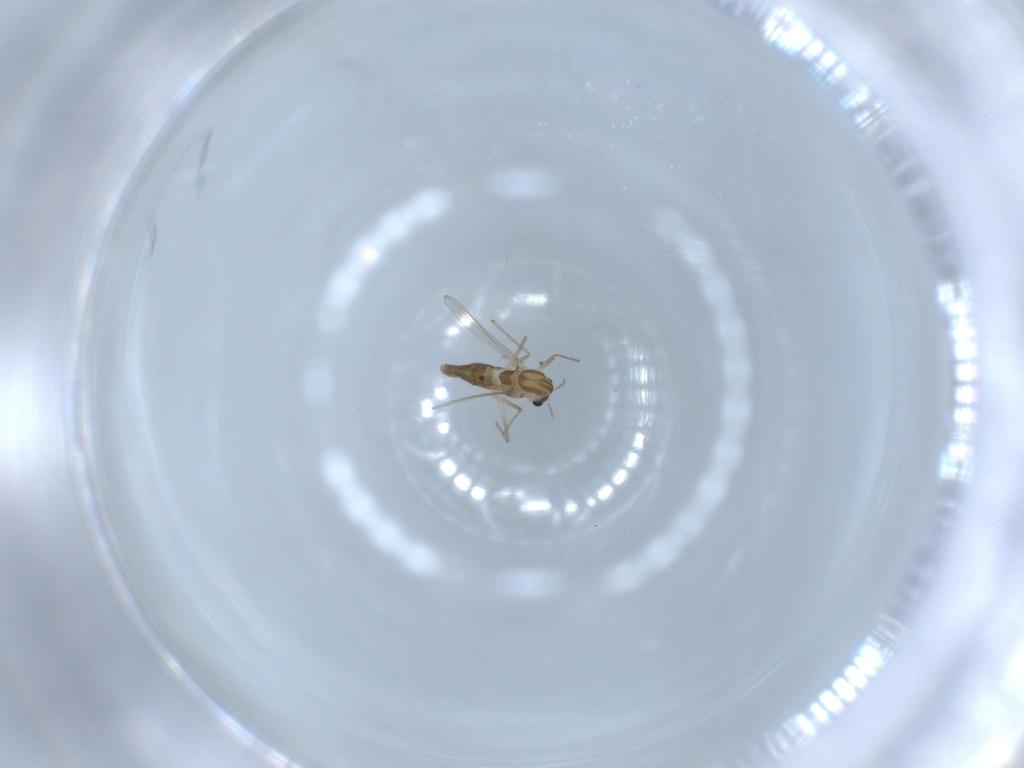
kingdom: Animalia
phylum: Arthropoda
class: Insecta
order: Diptera
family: Chironomidae
